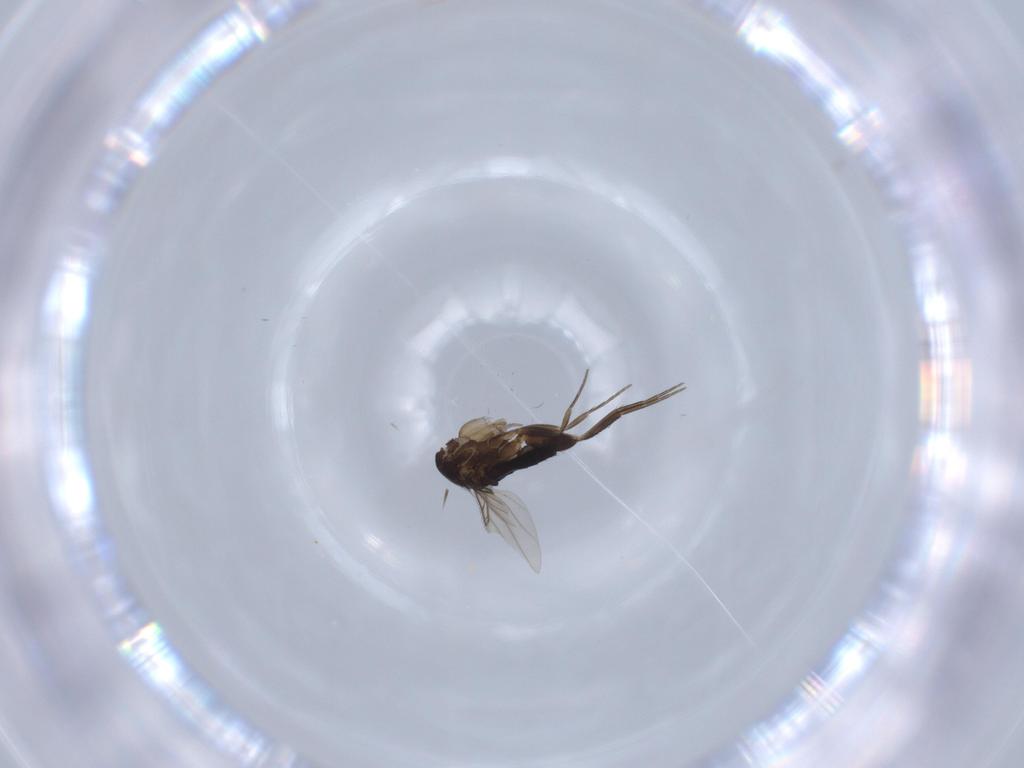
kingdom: Animalia
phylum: Arthropoda
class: Insecta
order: Diptera
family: Phoridae
